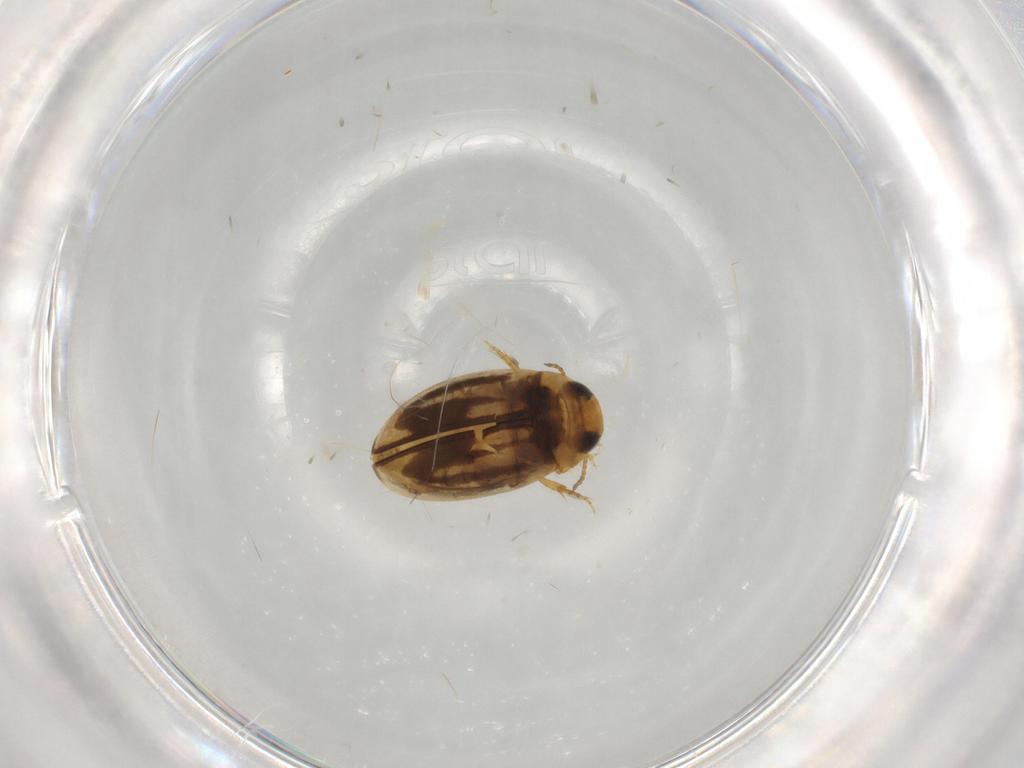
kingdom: Animalia
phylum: Arthropoda
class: Insecta
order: Coleoptera
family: Dytiscidae
